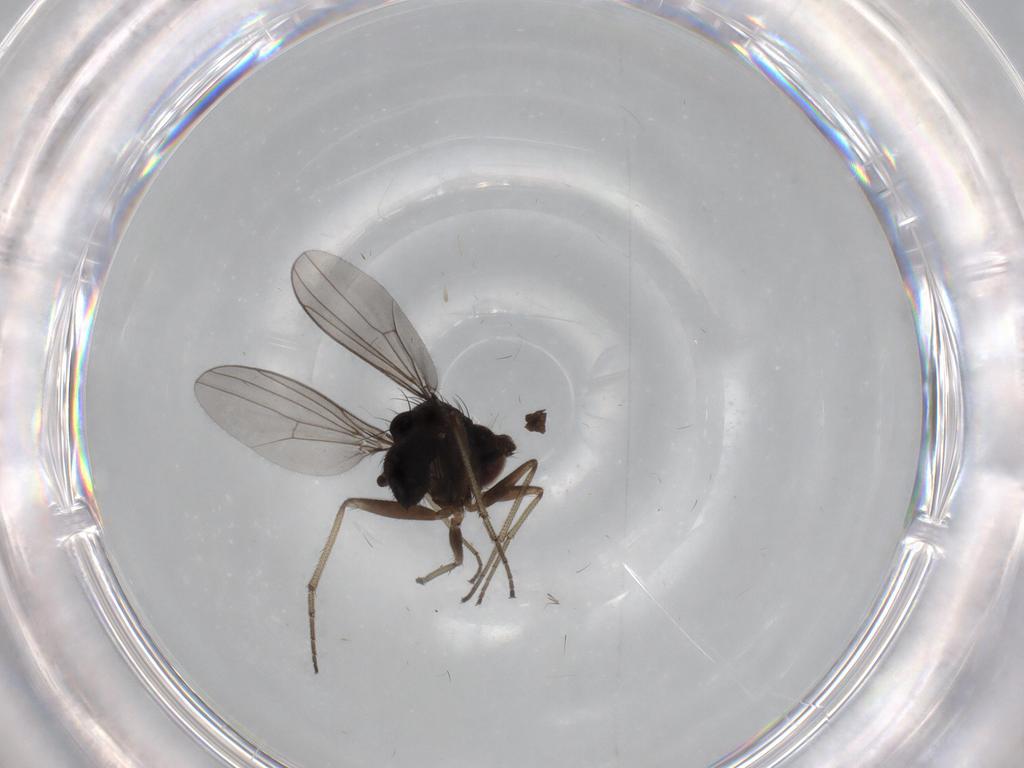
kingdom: Animalia
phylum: Arthropoda
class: Insecta
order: Diptera
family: Dolichopodidae
